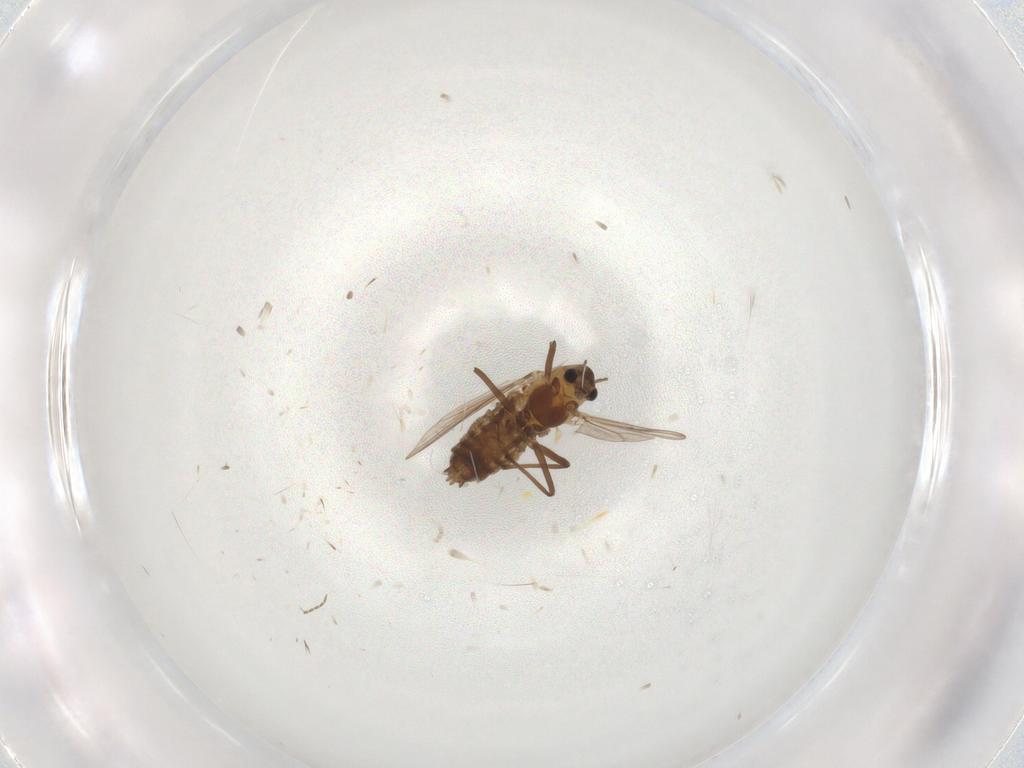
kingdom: Animalia
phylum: Arthropoda
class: Insecta
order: Diptera
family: Chironomidae
